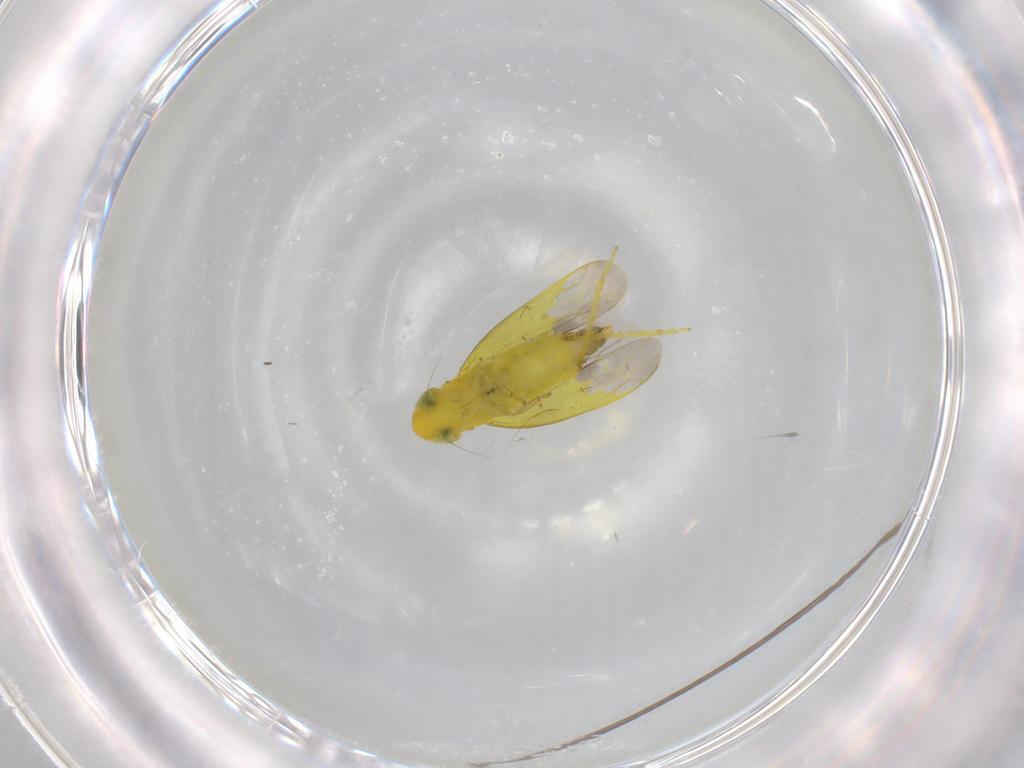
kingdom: Animalia
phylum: Arthropoda
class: Insecta
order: Hemiptera
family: Cicadellidae
